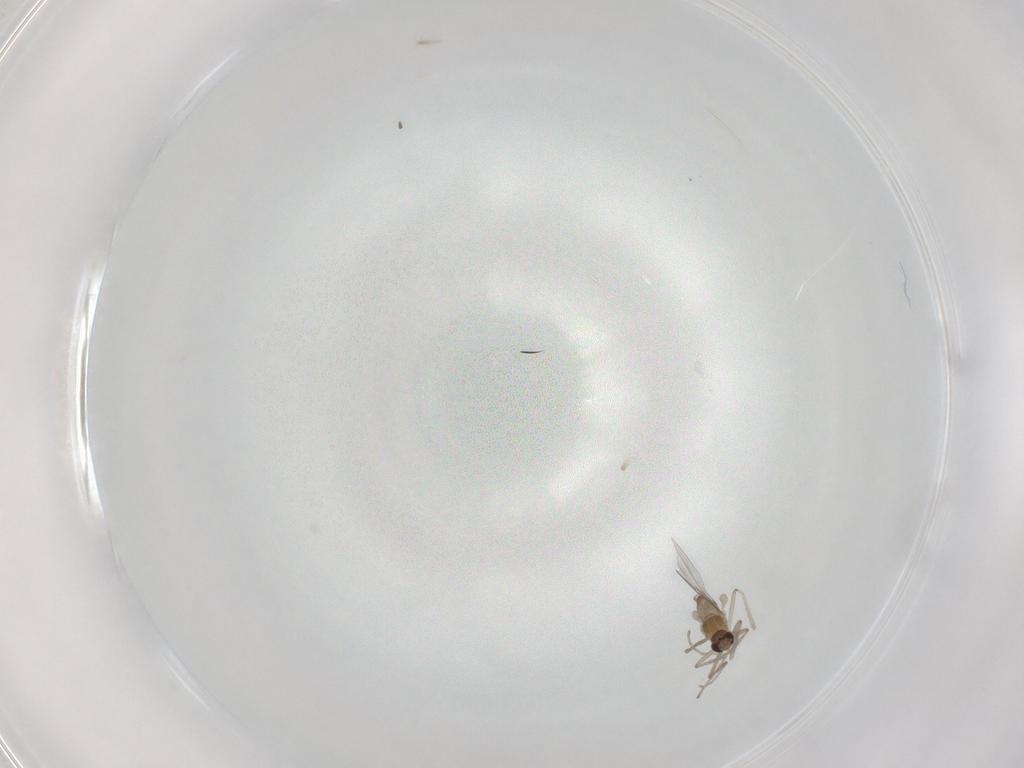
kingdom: Animalia
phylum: Arthropoda
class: Insecta
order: Diptera
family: Sciaridae
